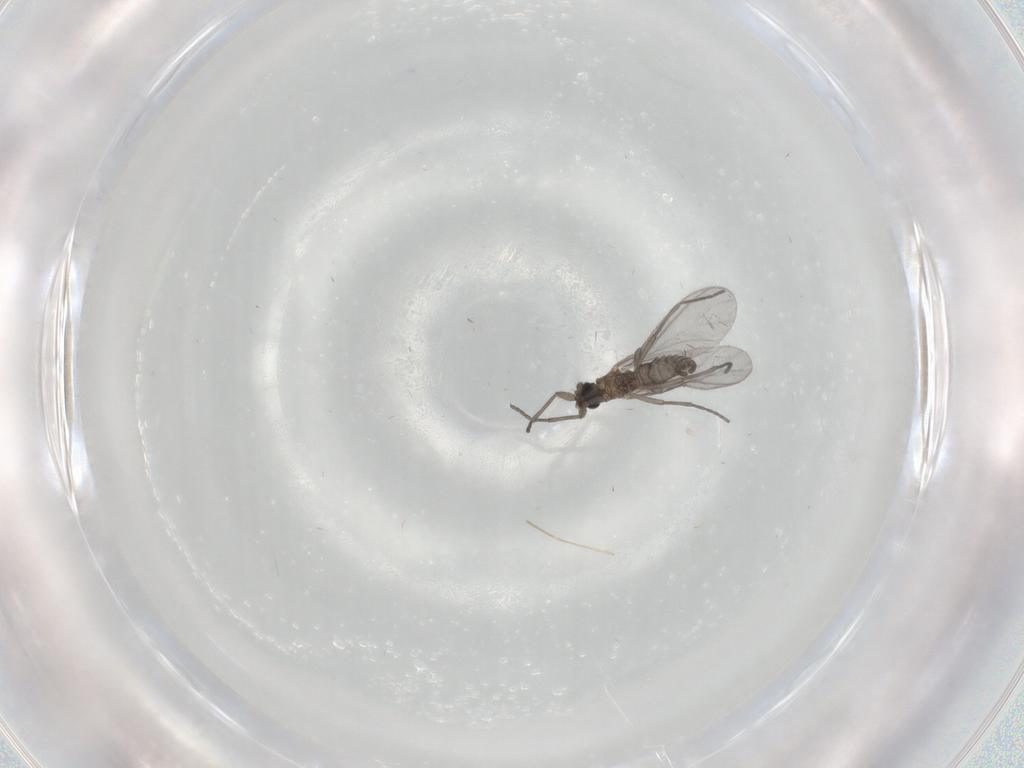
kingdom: Animalia
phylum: Arthropoda
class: Insecta
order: Diptera
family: Sciaridae
